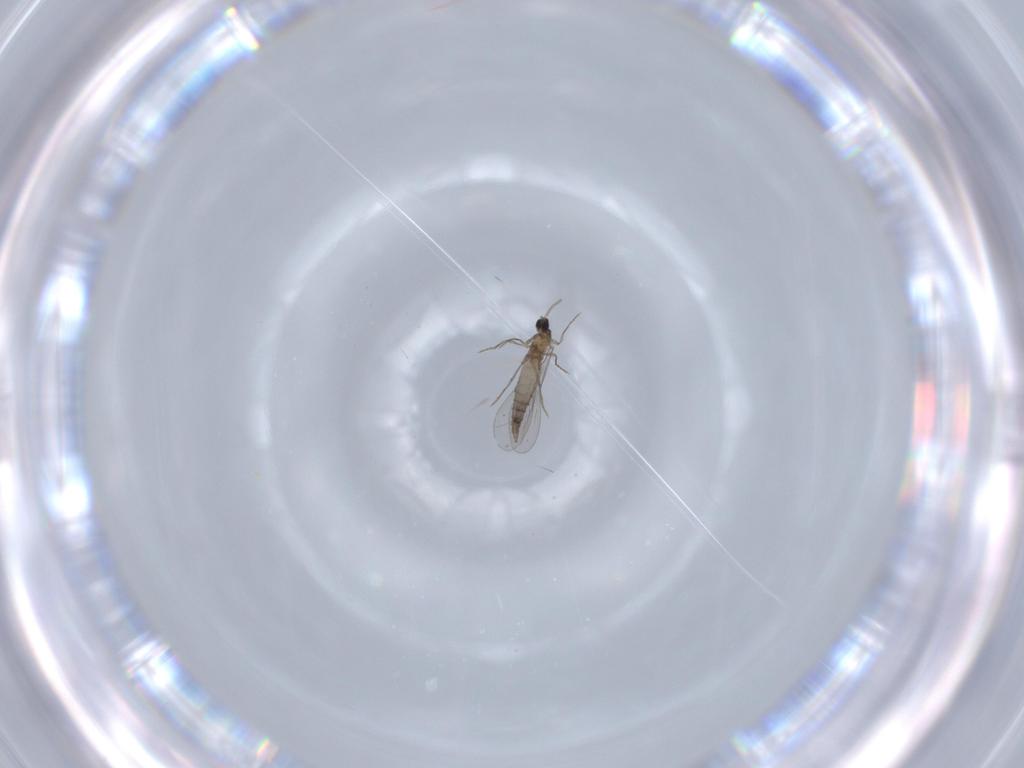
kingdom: Animalia
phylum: Arthropoda
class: Insecta
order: Diptera
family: Cecidomyiidae
